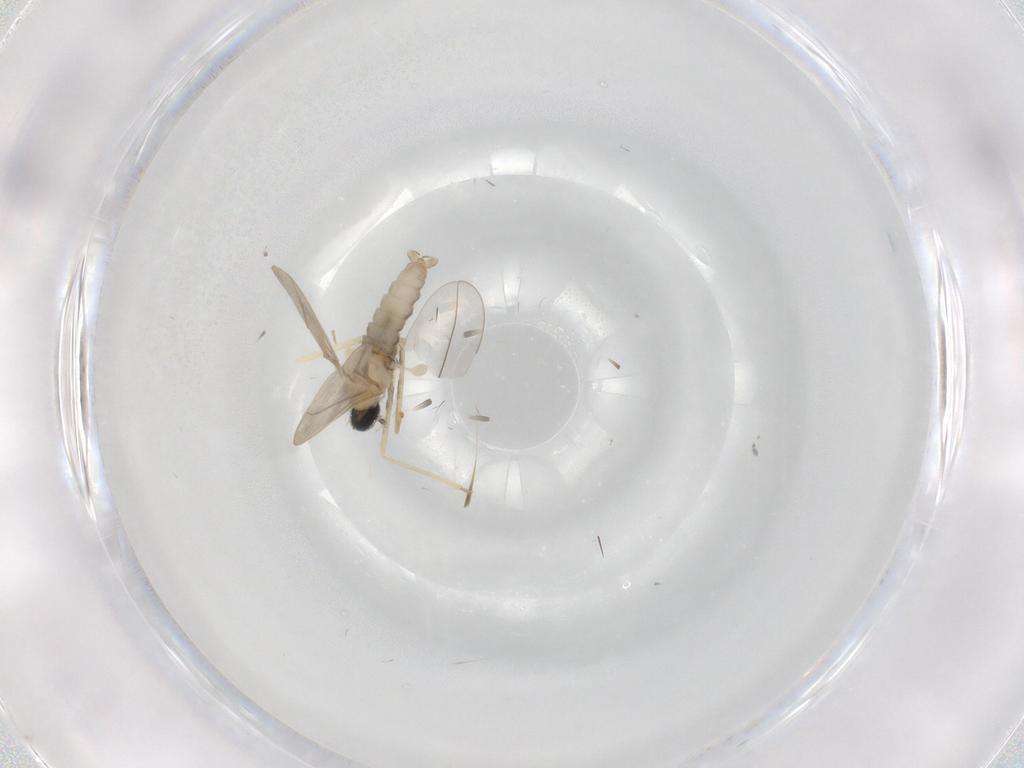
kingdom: Animalia
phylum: Arthropoda
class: Insecta
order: Diptera
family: Cecidomyiidae
